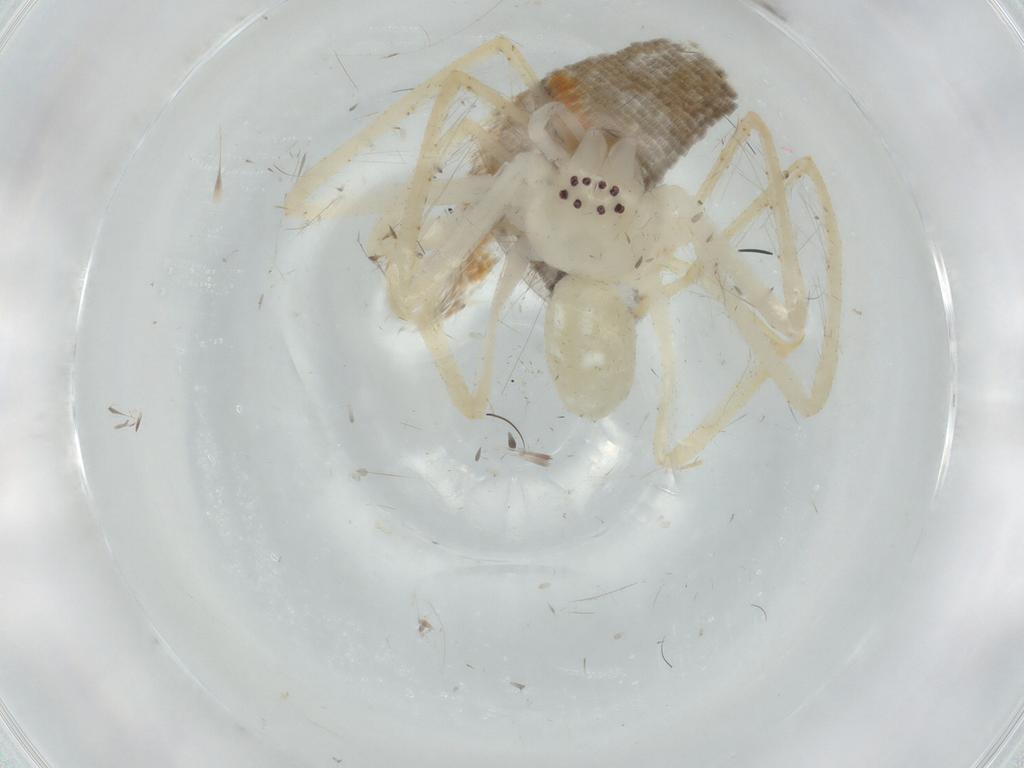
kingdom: Animalia
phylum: Arthropoda
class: Arachnida
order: Araneae
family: Sparassidae
